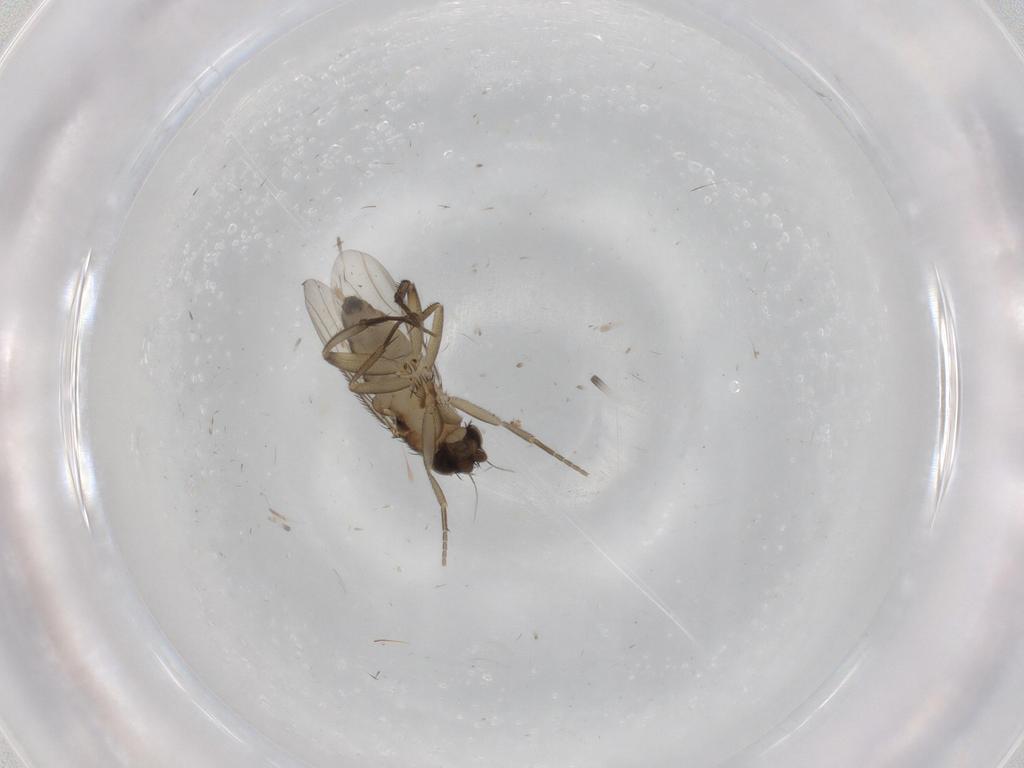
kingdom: Animalia
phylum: Arthropoda
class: Insecta
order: Diptera
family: Phoridae
